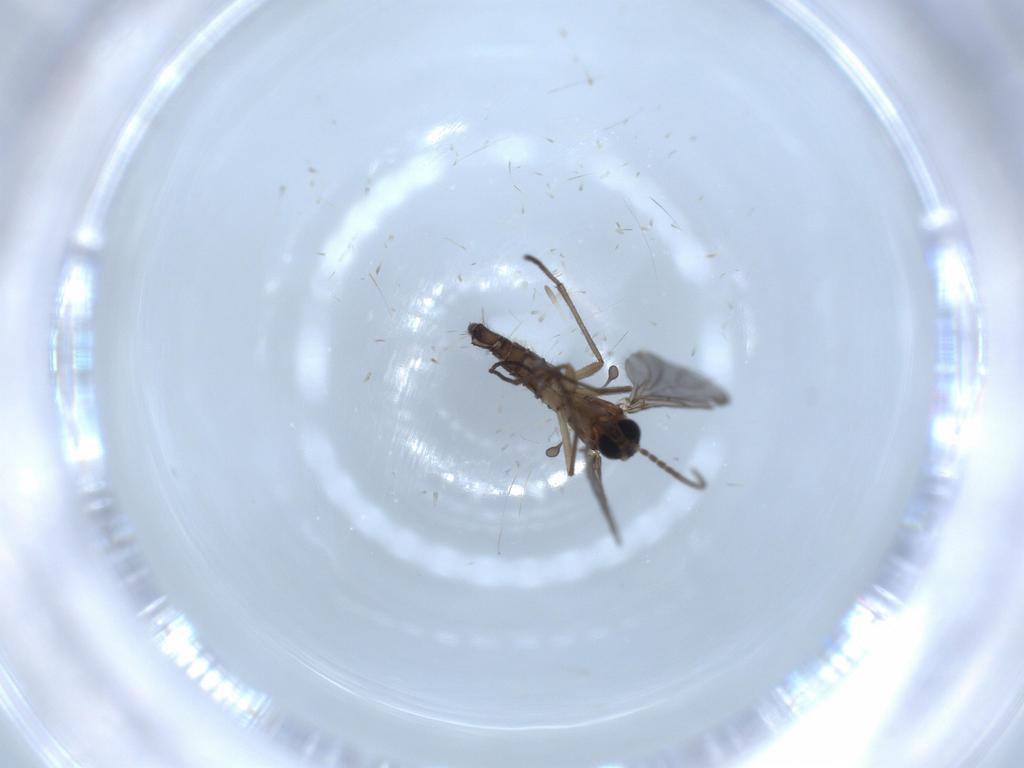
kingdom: Animalia
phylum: Arthropoda
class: Insecta
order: Diptera
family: Sciaridae
